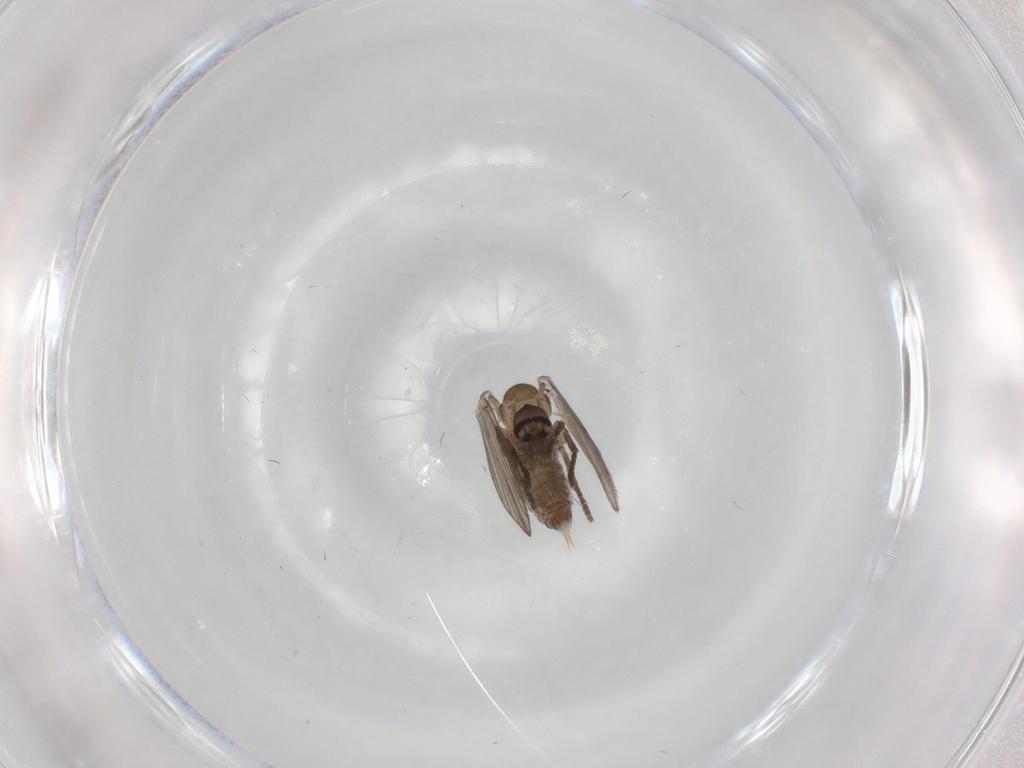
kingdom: Animalia
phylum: Arthropoda
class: Insecta
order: Diptera
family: Psychodidae
